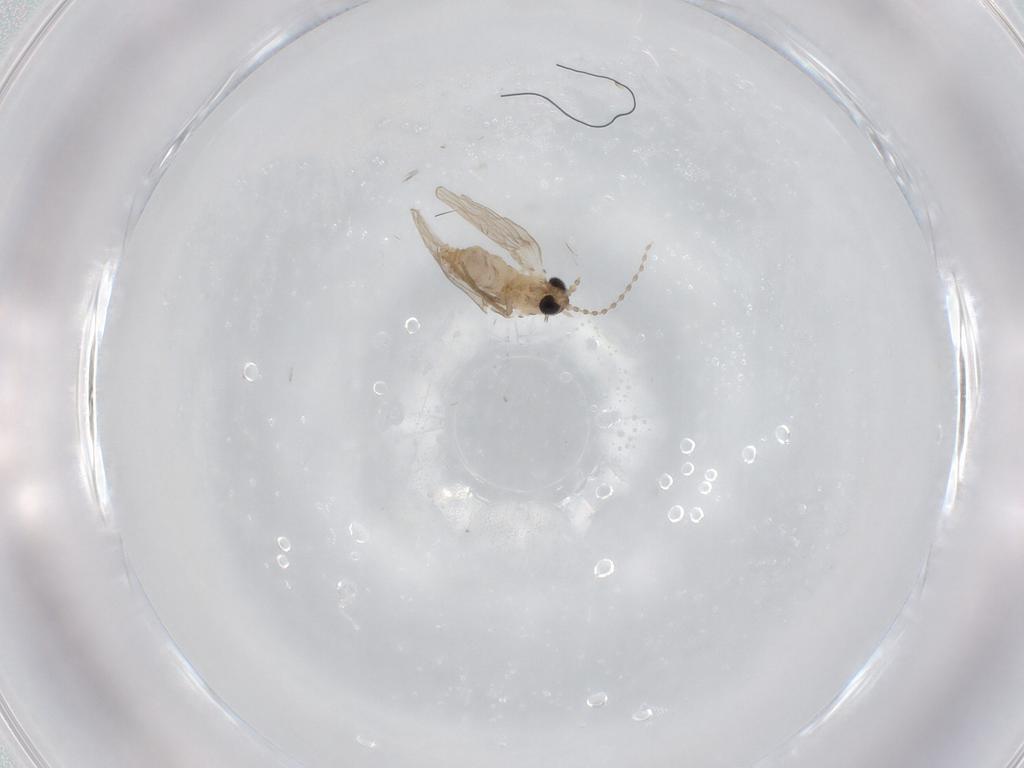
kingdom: Animalia
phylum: Arthropoda
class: Insecta
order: Diptera
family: Psychodidae
